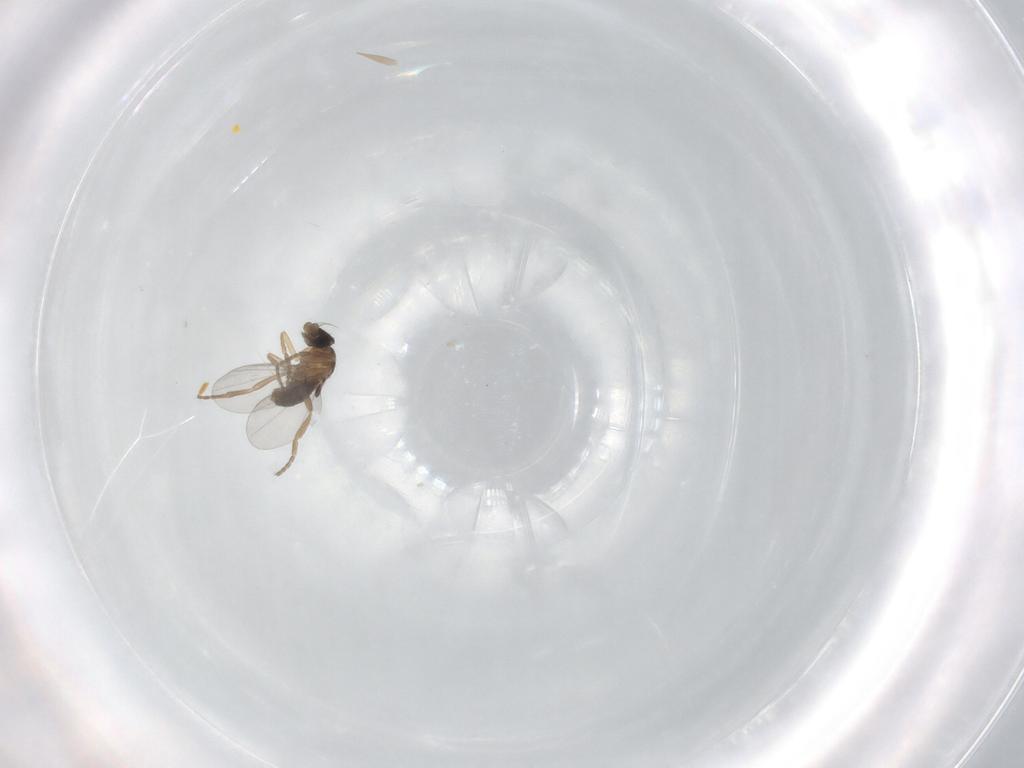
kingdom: Animalia
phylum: Arthropoda
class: Insecta
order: Diptera
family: Phoridae
